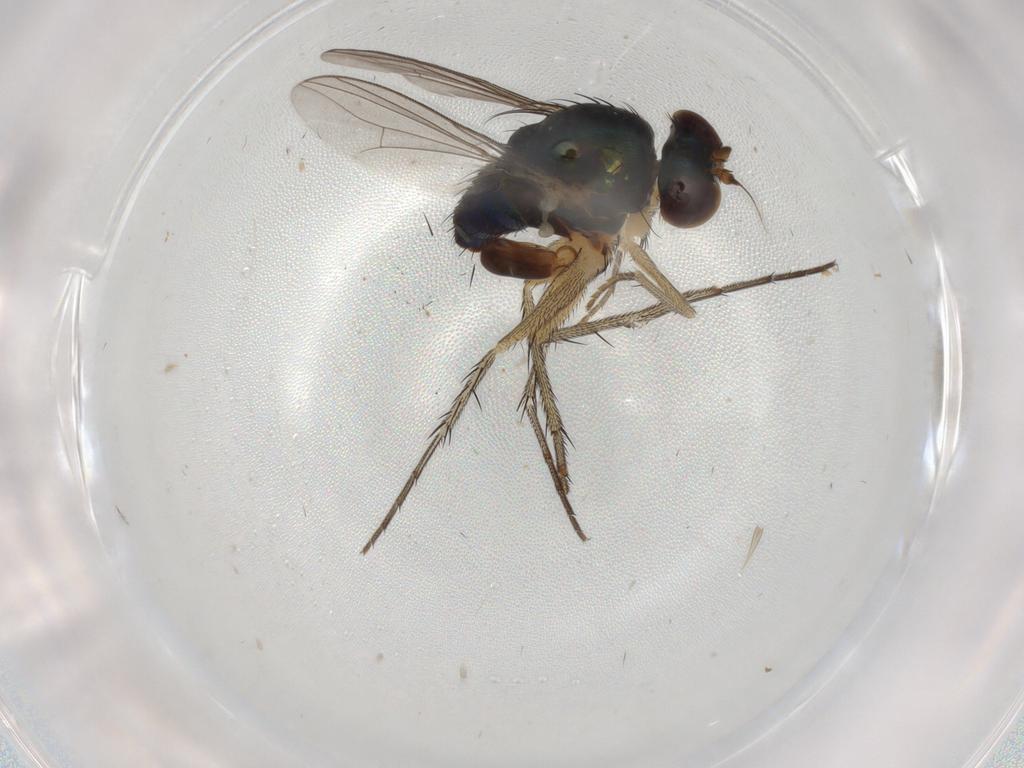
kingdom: Animalia
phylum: Arthropoda
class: Insecta
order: Diptera
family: Dolichopodidae
